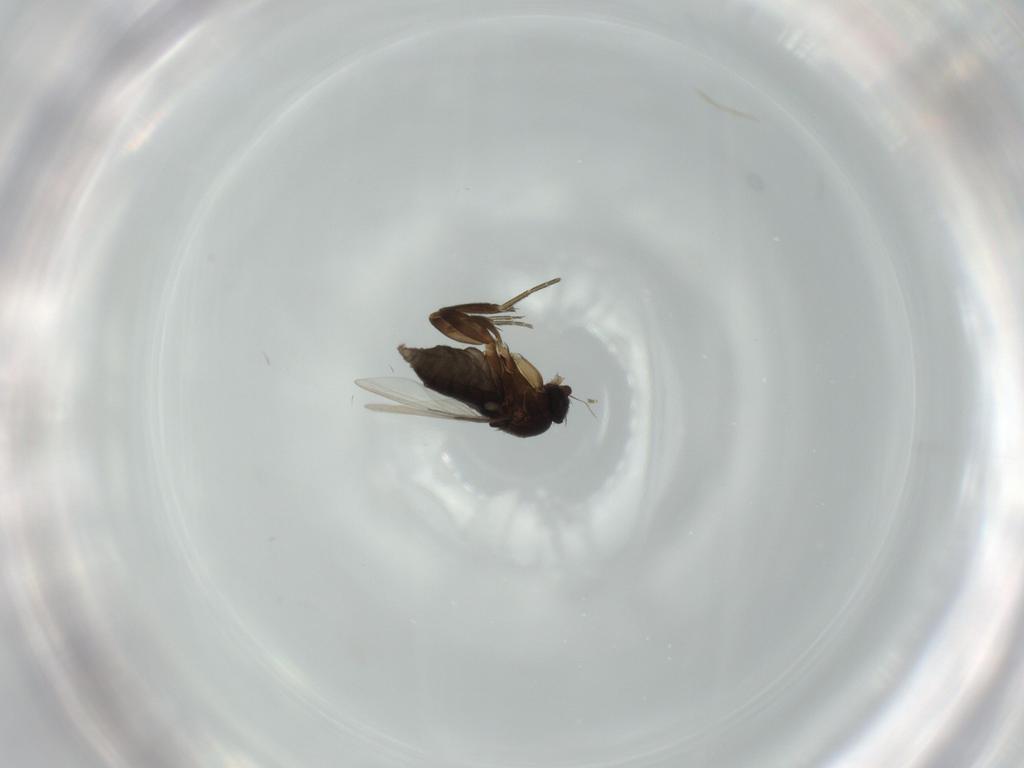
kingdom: Animalia
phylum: Arthropoda
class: Insecta
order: Diptera
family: Phoridae
